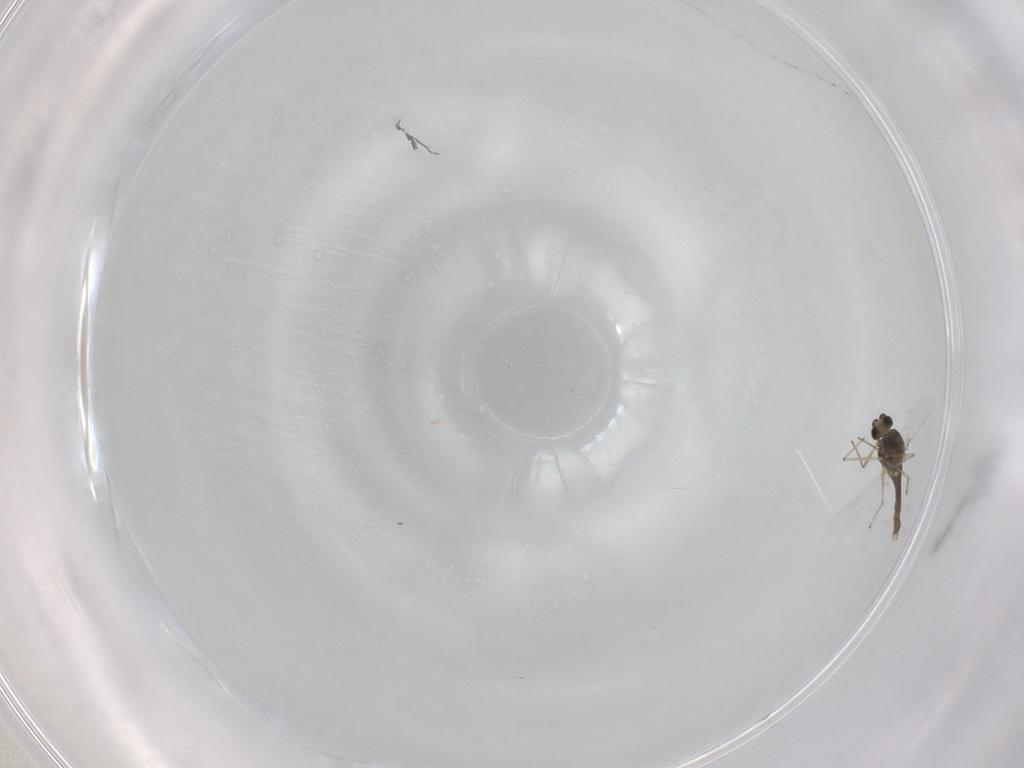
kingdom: Animalia
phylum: Arthropoda
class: Insecta
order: Diptera
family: Chironomidae
